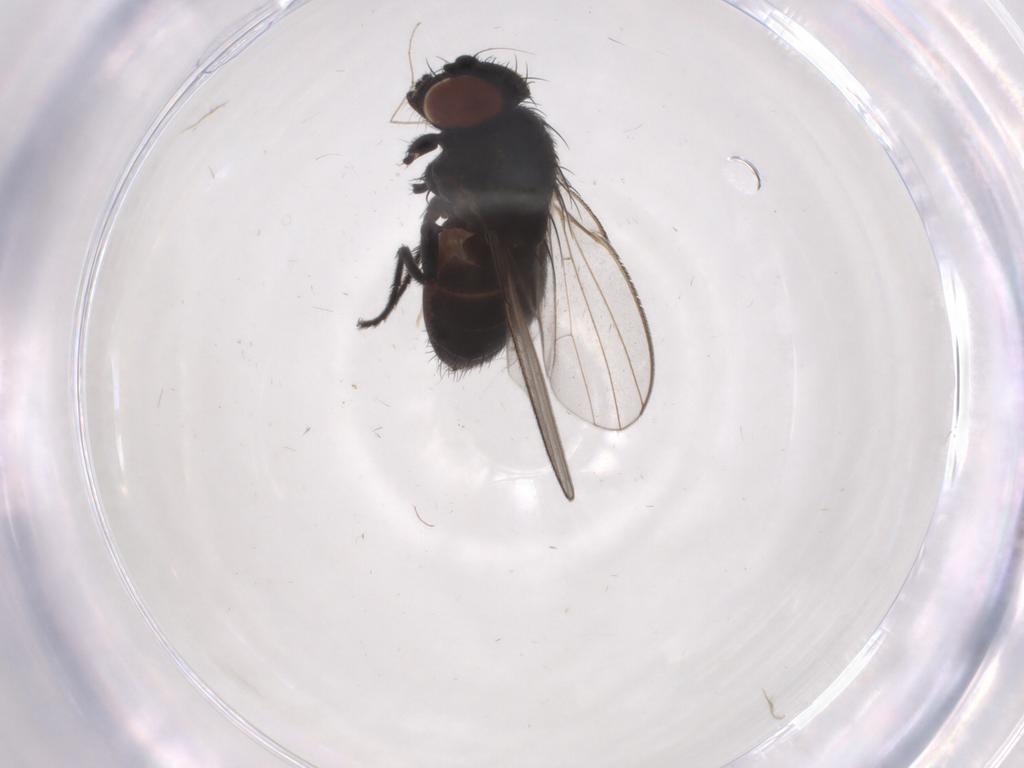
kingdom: Animalia
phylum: Arthropoda
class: Insecta
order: Diptera
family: Milichiidae
